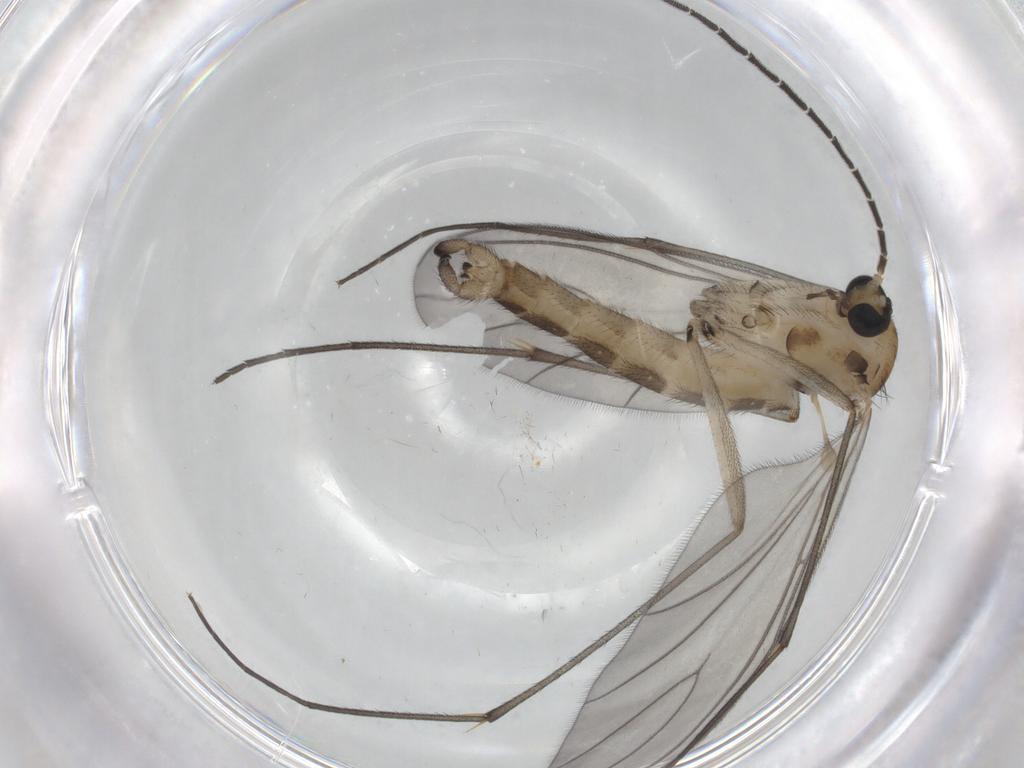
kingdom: Animalia
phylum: Arthropoda
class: Insecta
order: Diptera
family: Sciaridae
